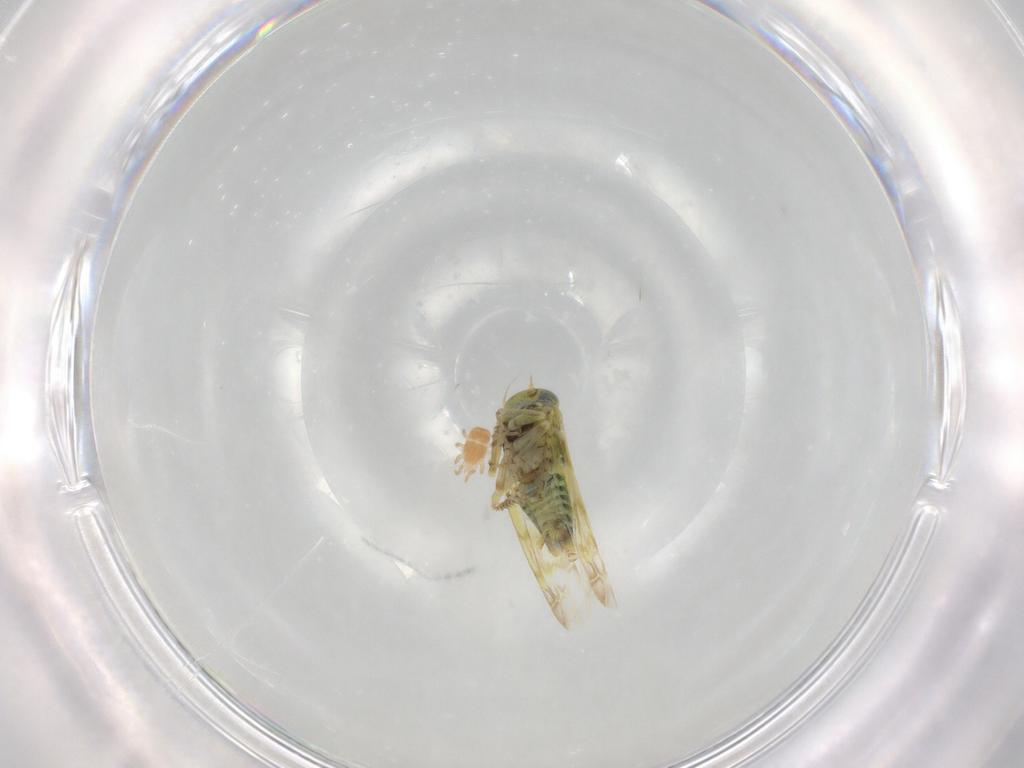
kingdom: Animalia
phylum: Arthropoda
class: Arachnida
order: Mesostigmata
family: Digamasellidae
